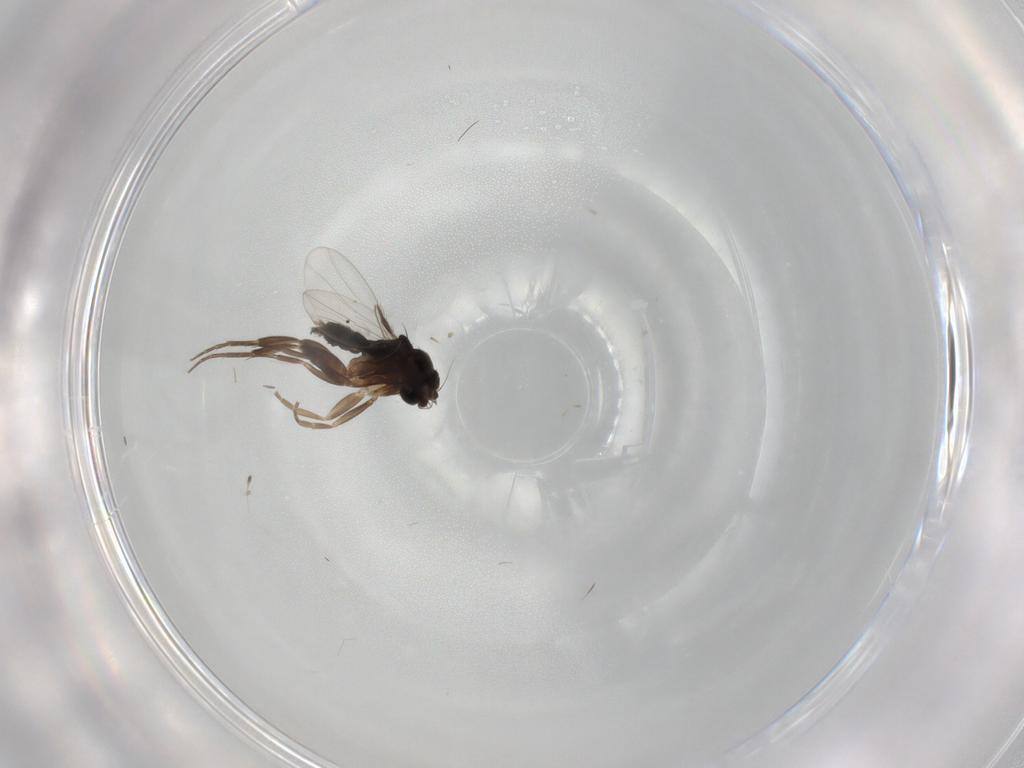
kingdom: Animalia
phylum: Arthropoda
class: Insecta
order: Diptera
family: Phoridae
